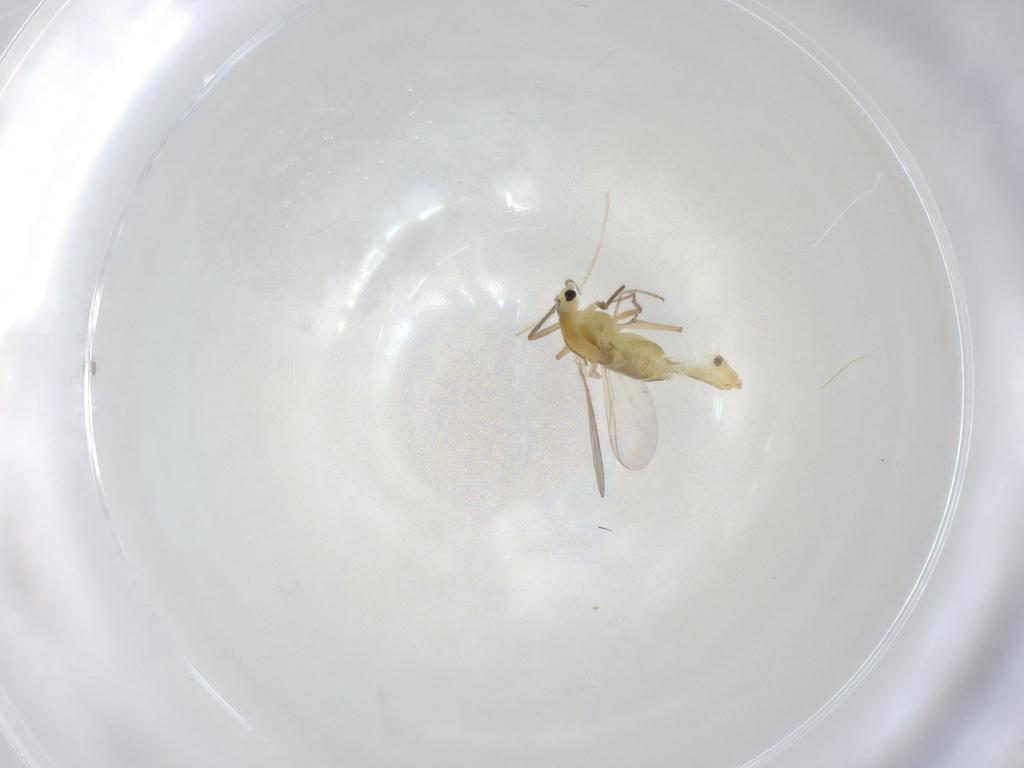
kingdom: Animalia
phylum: Arthropoda
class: Insecta
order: Diptera
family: Chironomidae
